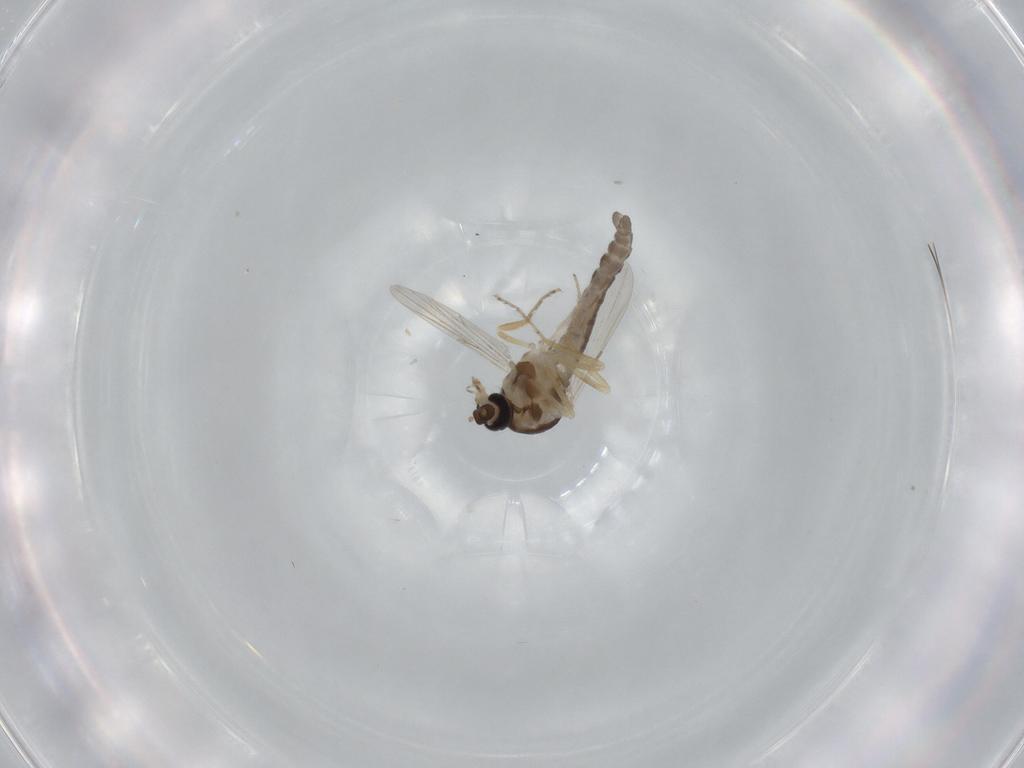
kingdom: Animalia
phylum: Arthropoda
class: Insecta
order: Diptera
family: Ceratopogonidae
